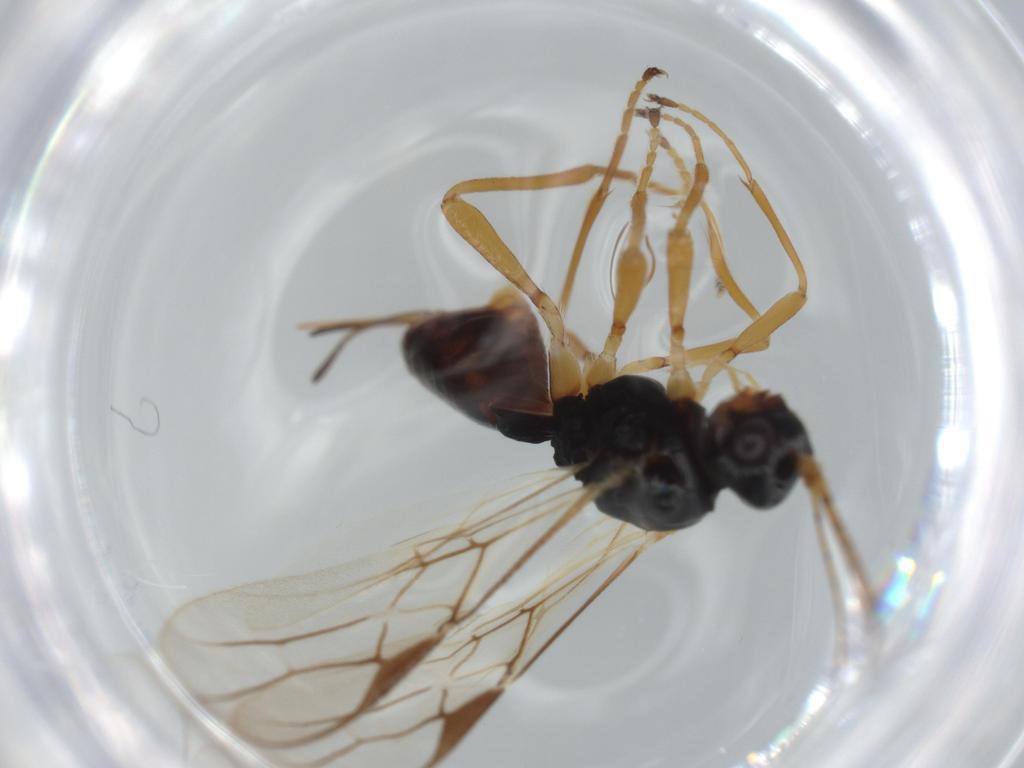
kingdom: Animalia
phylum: Arthropoda
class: Insecta
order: Hymenoptera
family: Braconidae
